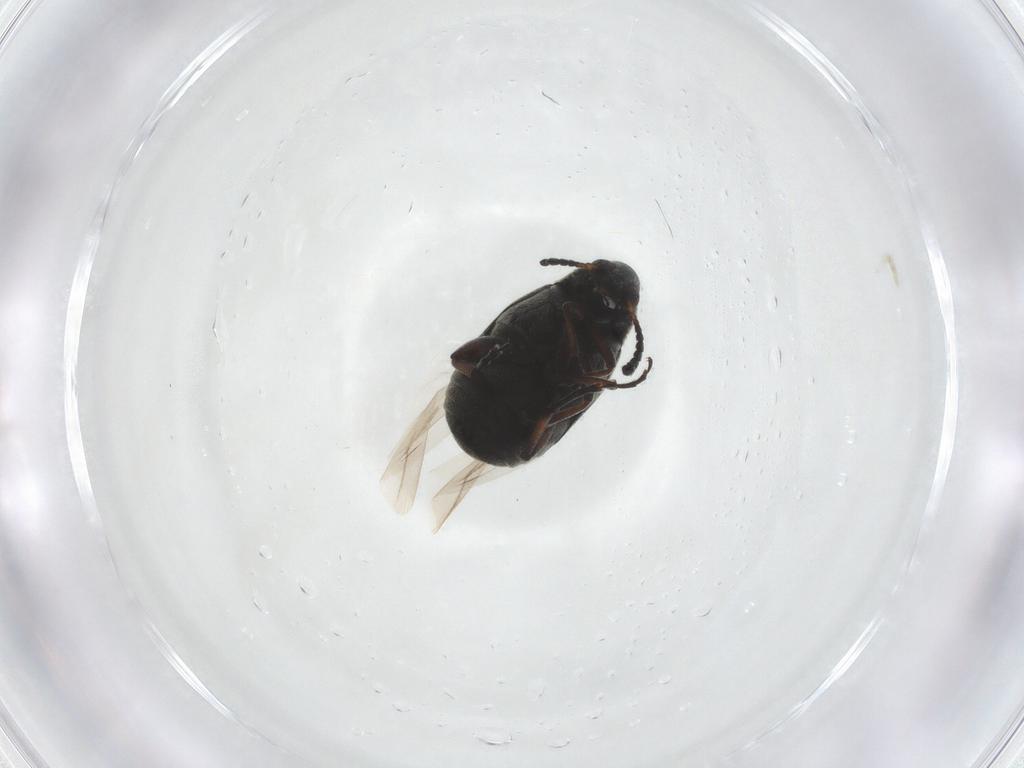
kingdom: Animalia
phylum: Arthropoda
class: Insecta
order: Coleoptera
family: Chrysomelidae
